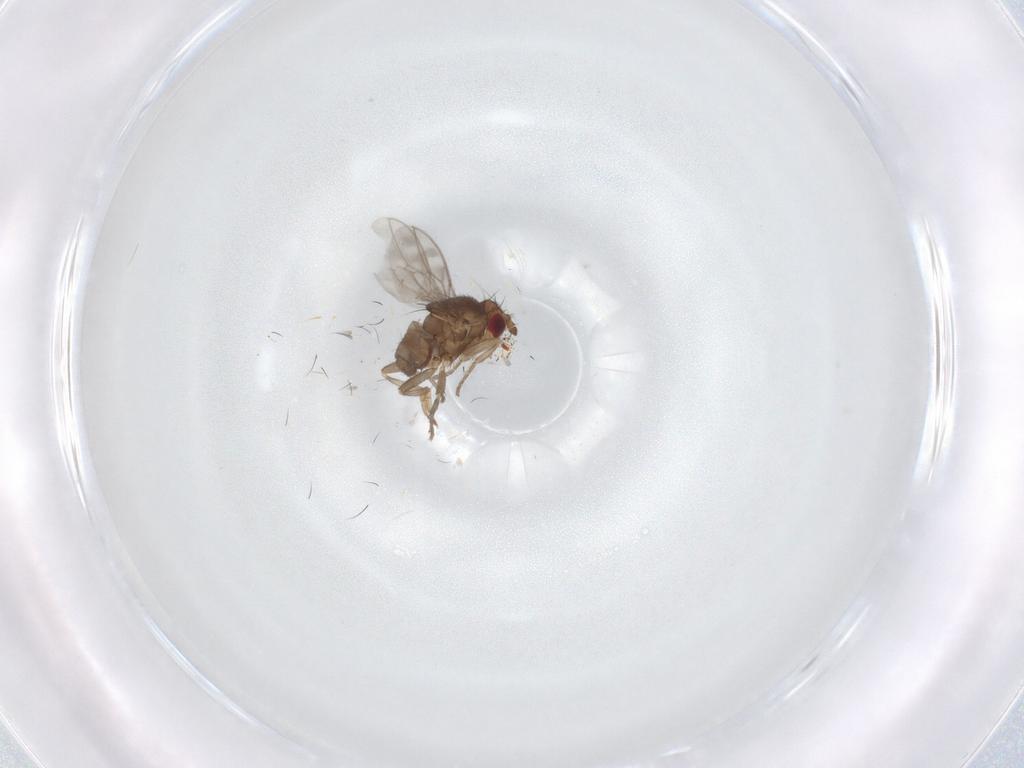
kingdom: Animalia
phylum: Arthropoda
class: Insecta
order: Diptera
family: Sphaeroceridae
